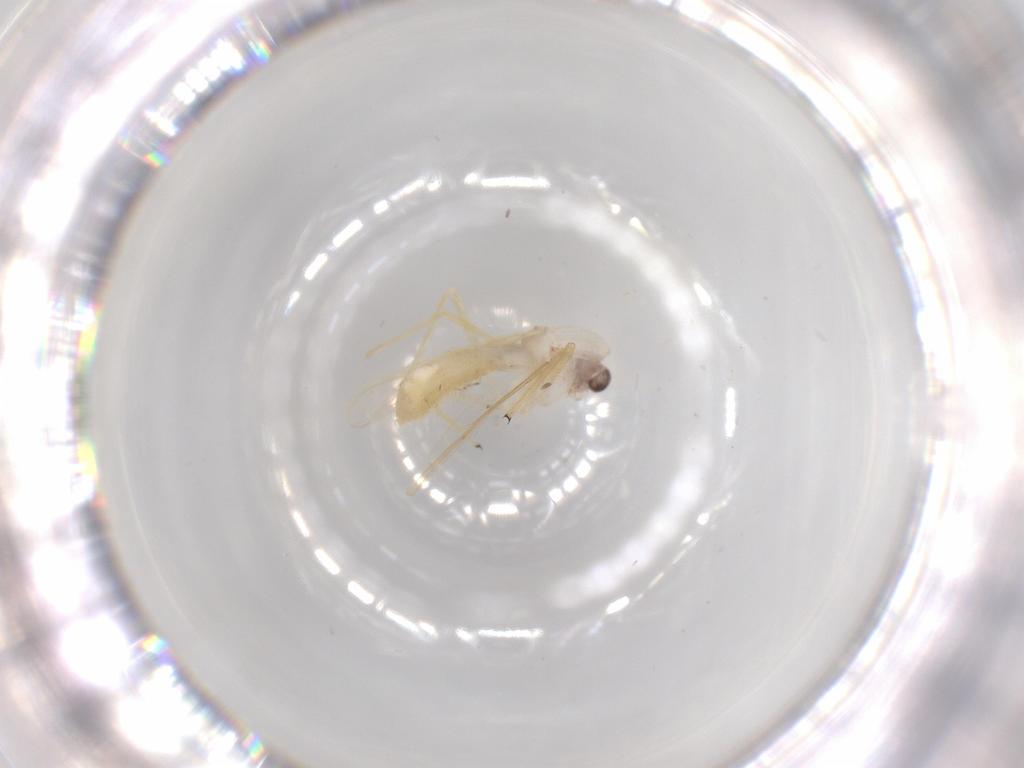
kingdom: Animalia
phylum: Arthropoda
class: Insecta
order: Diptera
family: Chironomidae
